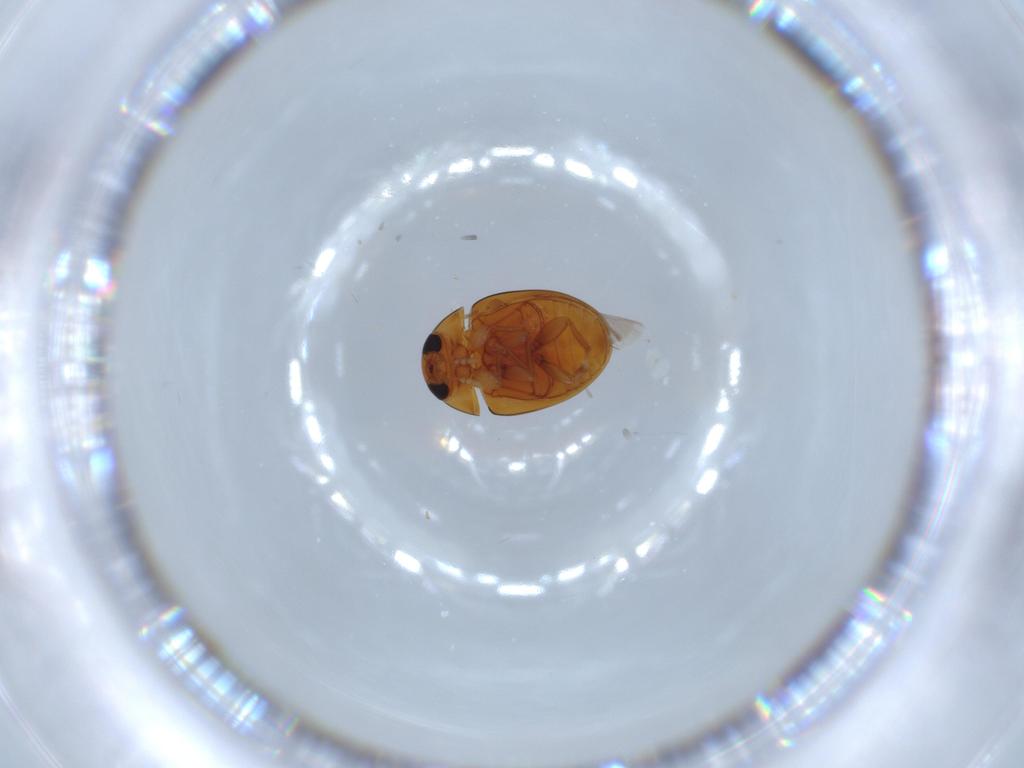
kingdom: Animalia
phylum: Arthropoda
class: Insecta
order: Coleoptera
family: Phalacridae
